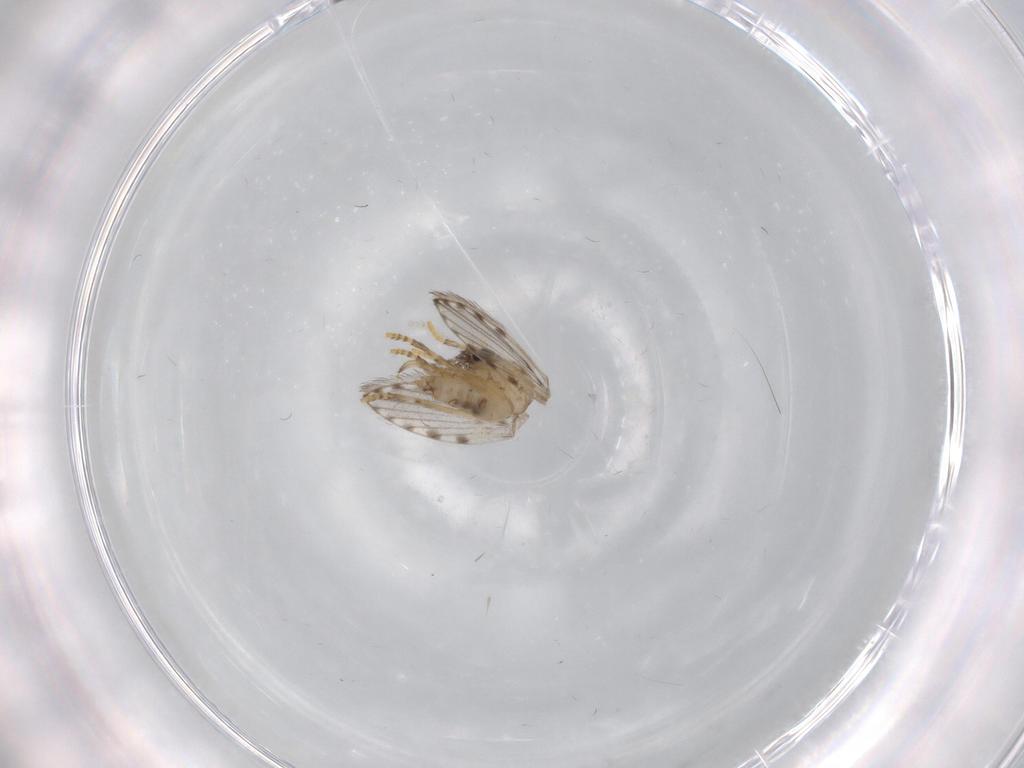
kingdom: Animalia
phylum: Arthropoda
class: Insecta
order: Diptera
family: Psychodidae
